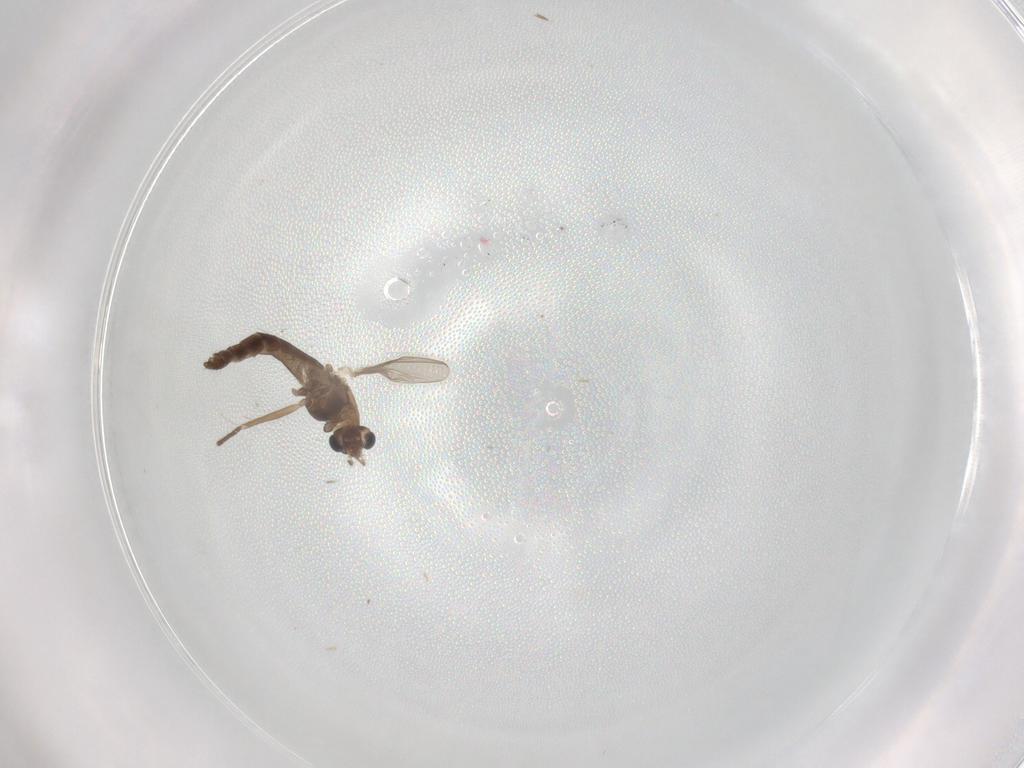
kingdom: Animalia
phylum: Arthropoda
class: Insecta
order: Diptera
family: Chironomidae
